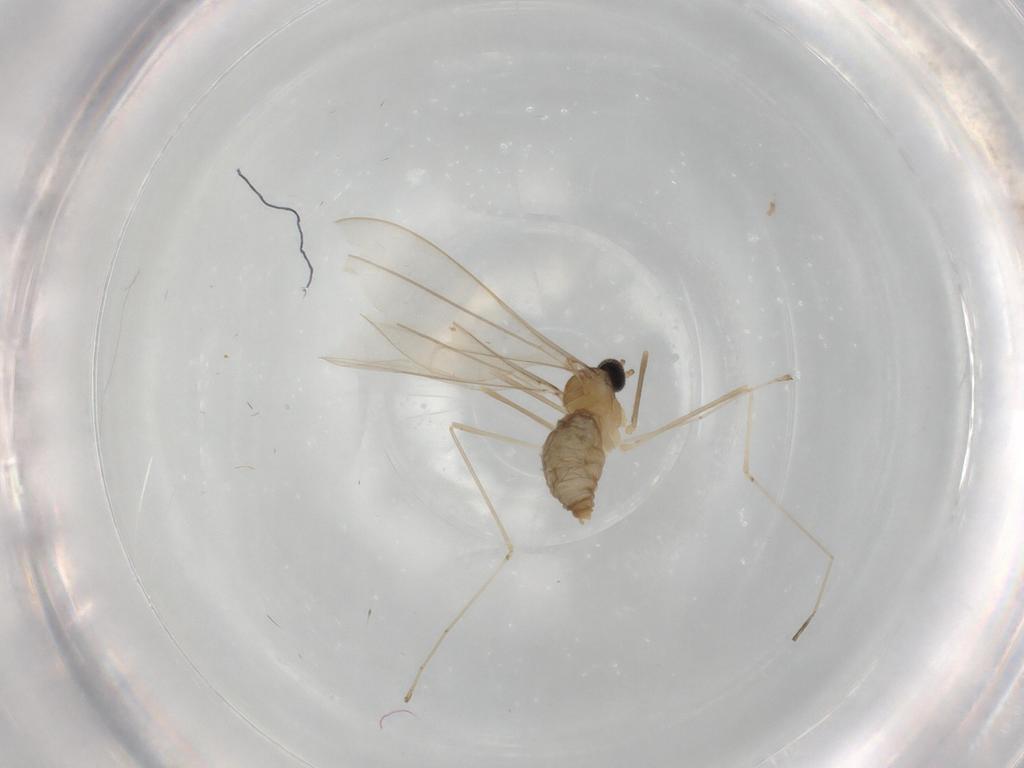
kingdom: Animalia
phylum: Arthropoda
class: Insecta
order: Diptera
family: Cecidomyiidae
